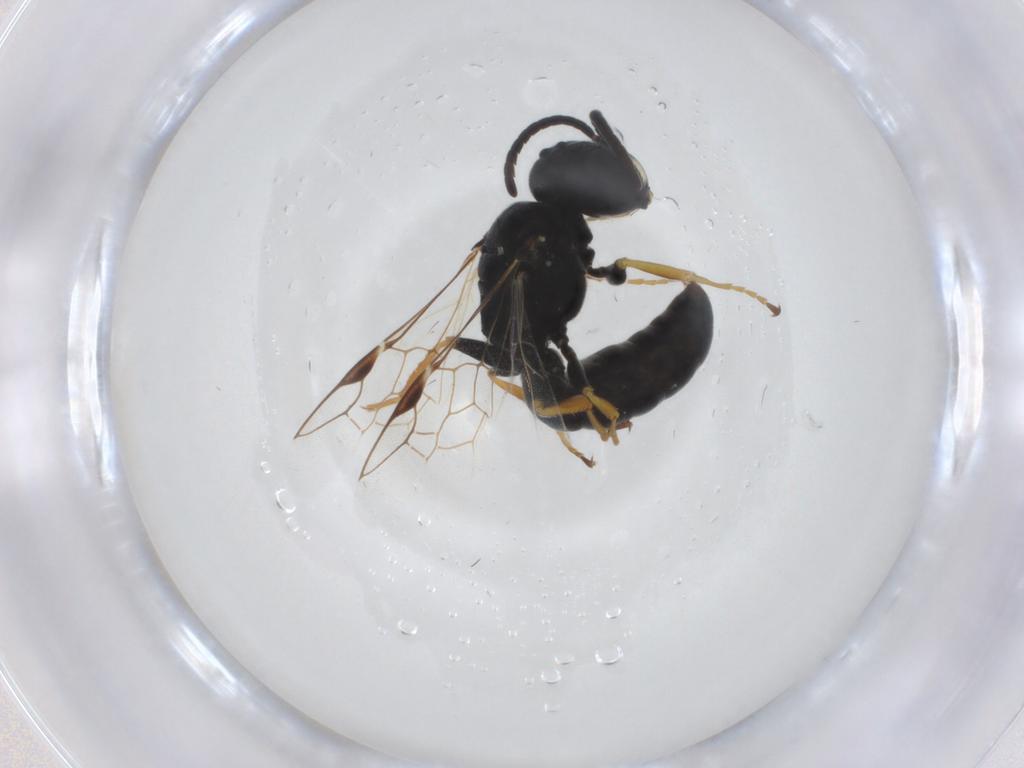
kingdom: Animalia
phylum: Arthropoda
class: Insecta
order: Hymenoptera
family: Pemphredonidae
